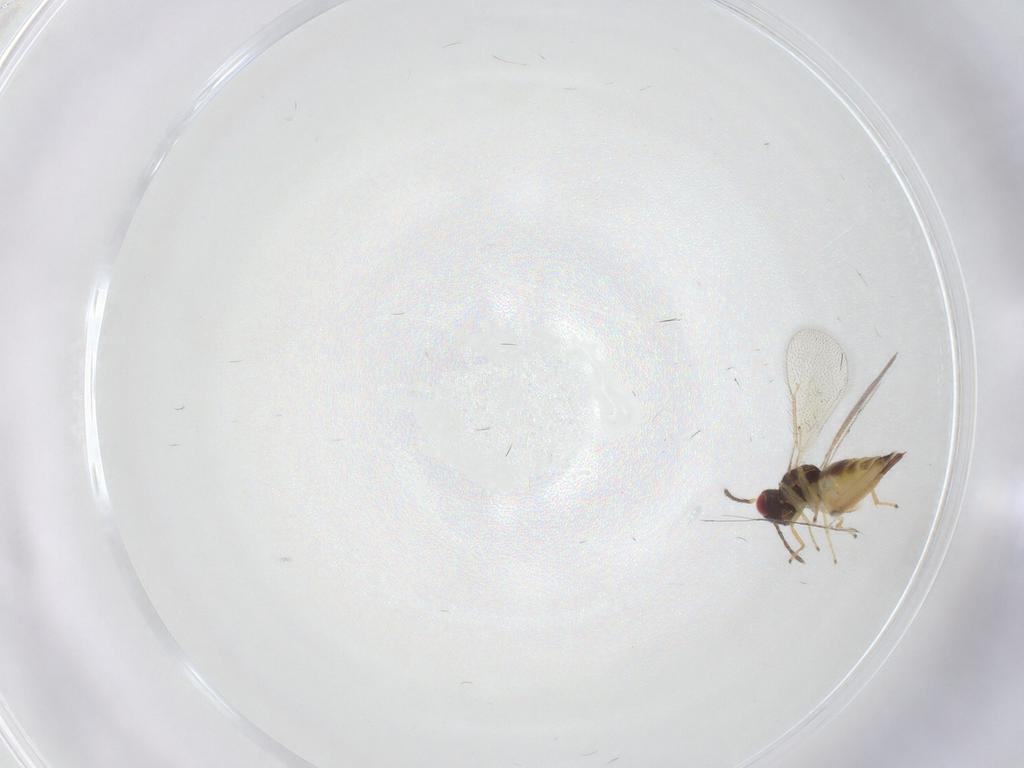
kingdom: Animalia
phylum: Arthropoda
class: Insecta
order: Hymenoptera
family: Eulophidae
